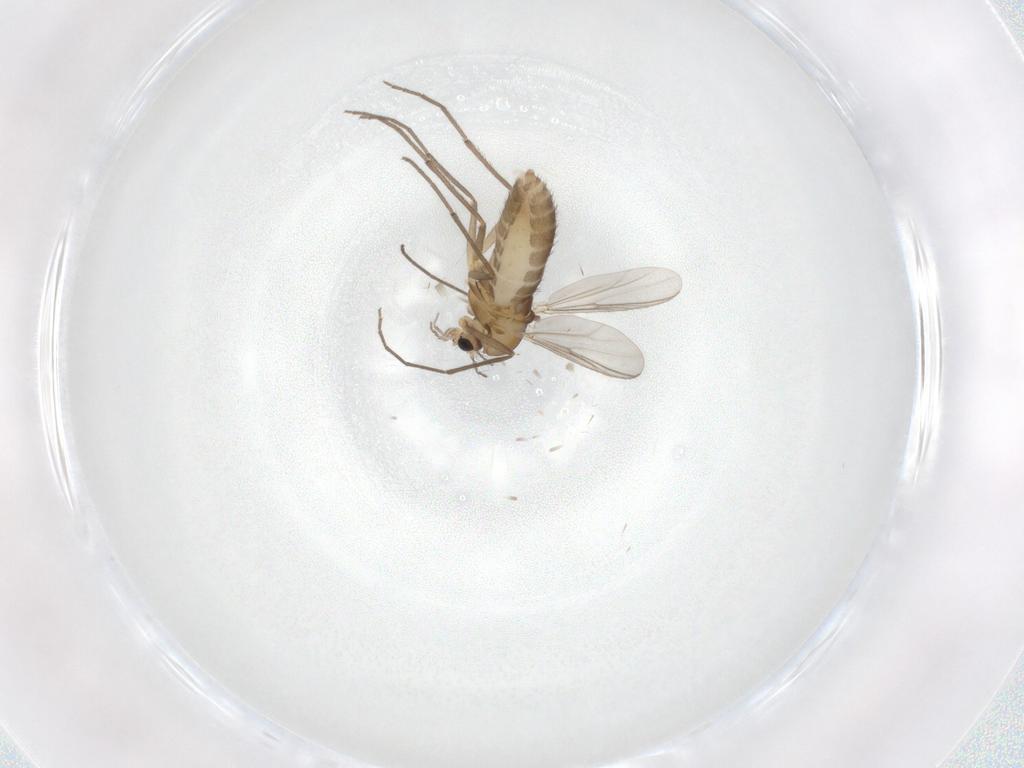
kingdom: Animalia
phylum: Arthropoda
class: Insecta
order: Diptera
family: Chironomidae
